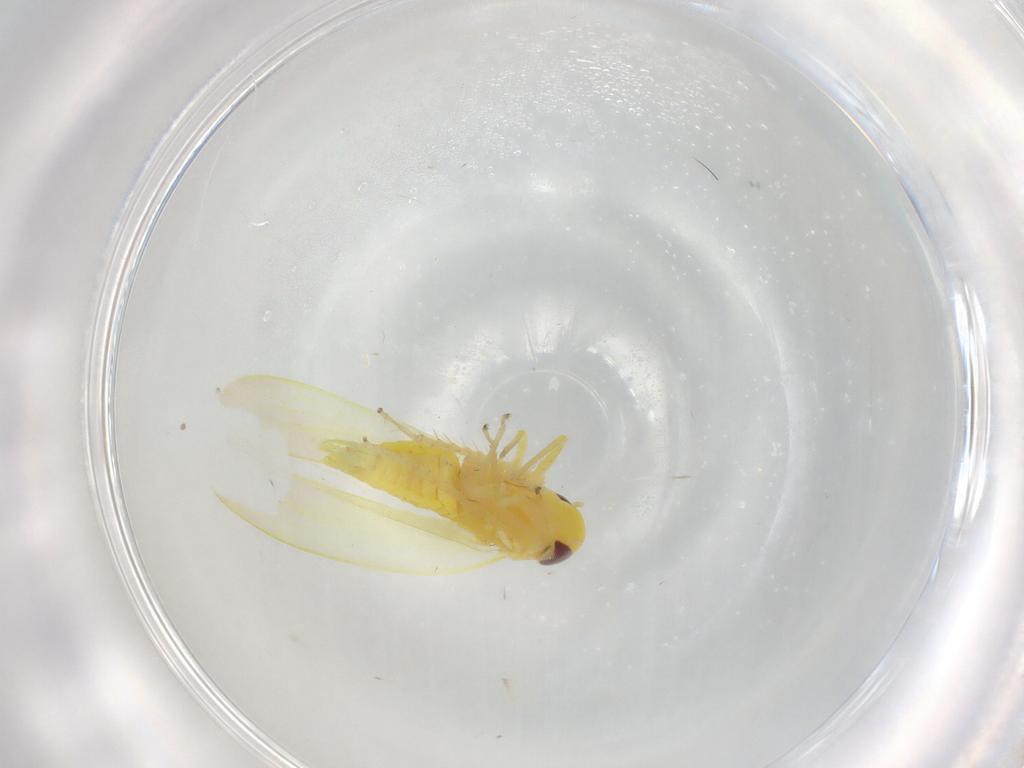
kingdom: Animalia
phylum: Arthropoda
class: Insecta
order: Hemiptera
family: Cicadellidae
